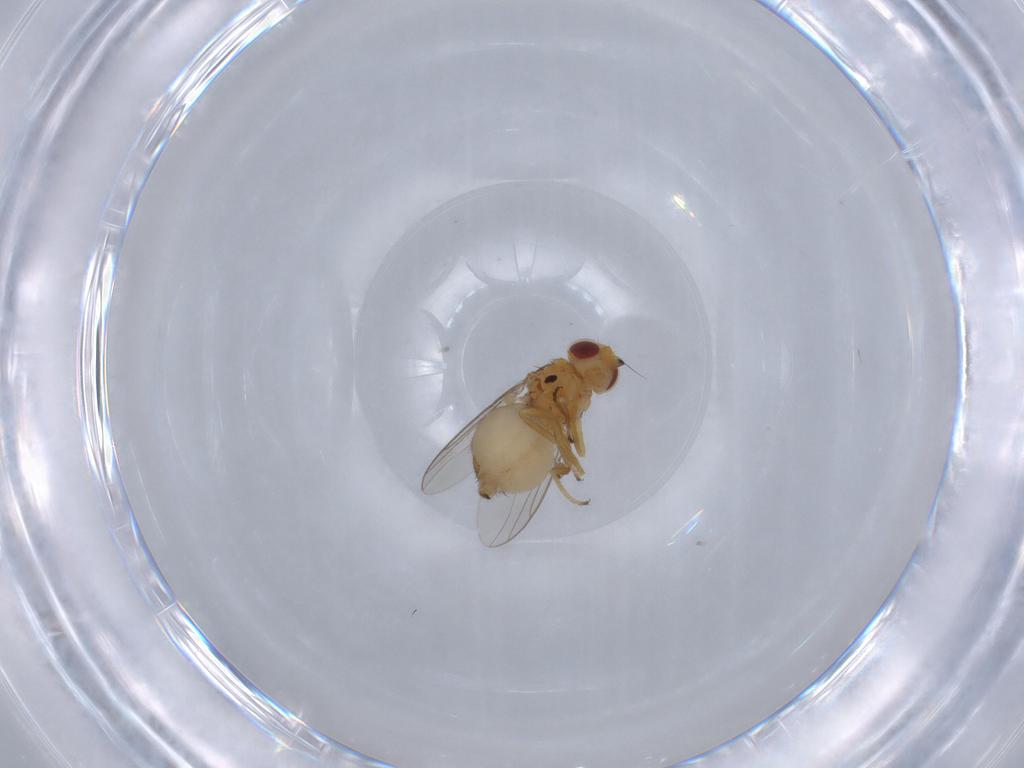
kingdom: Animalia
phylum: Arthropoda
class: Insecta
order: Diptera
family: Chloropidae
